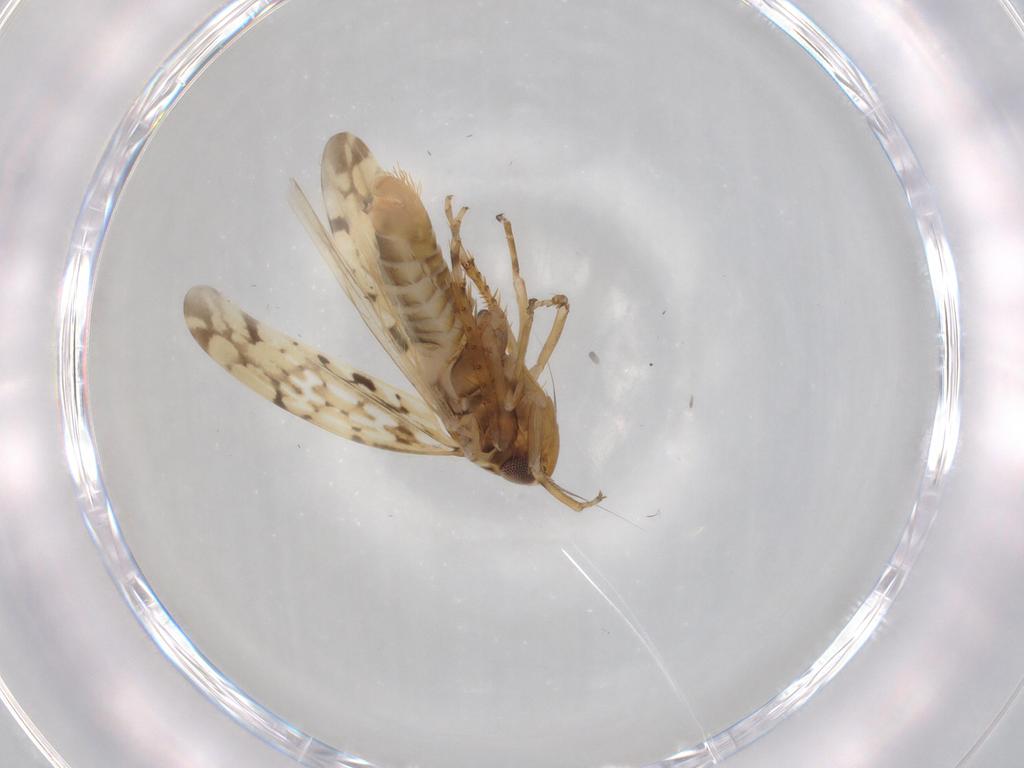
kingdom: Animalia
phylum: Arthropoda
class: Insecta
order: Hemiptera
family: Cicadellidae
